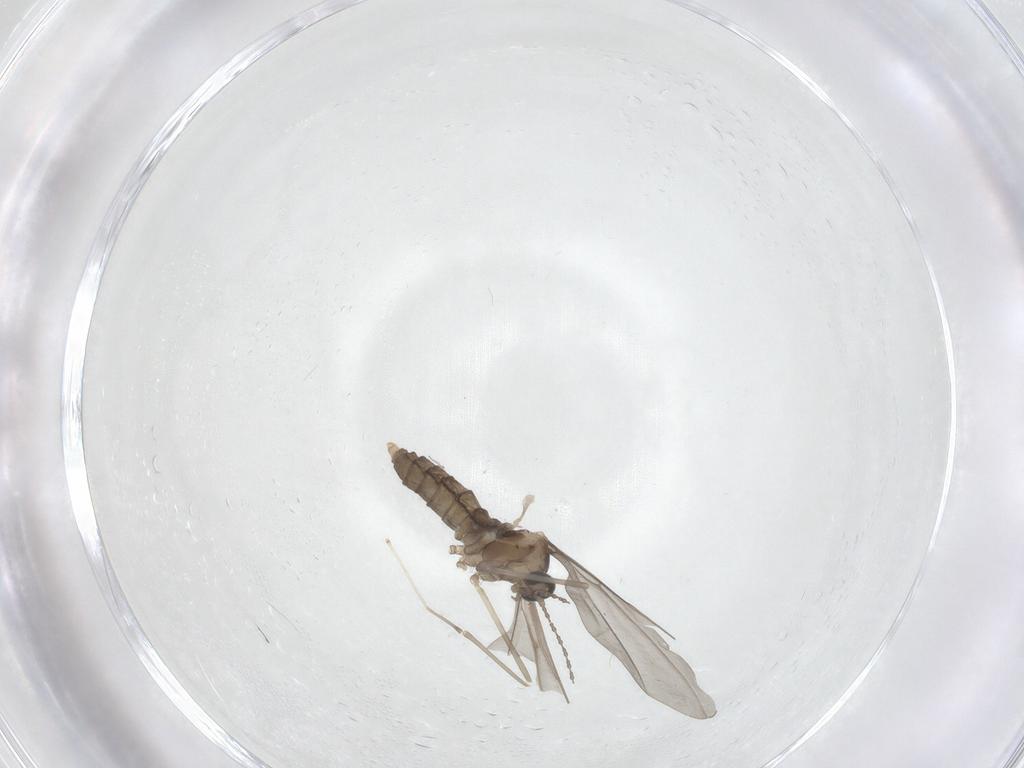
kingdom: Animalia
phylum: Arthropoda
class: Insecta
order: Diptera
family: Cecidomyiidae
